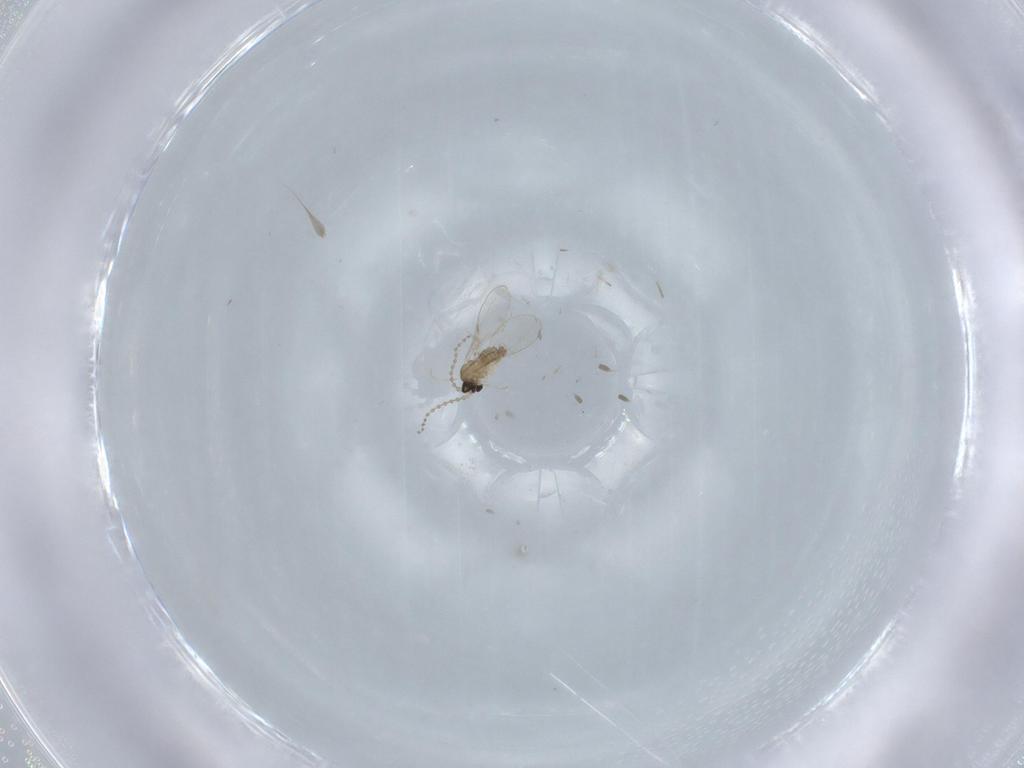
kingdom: Animalia
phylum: Arthropoda
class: Insecta
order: Diptera
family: Cecidomyiidae
